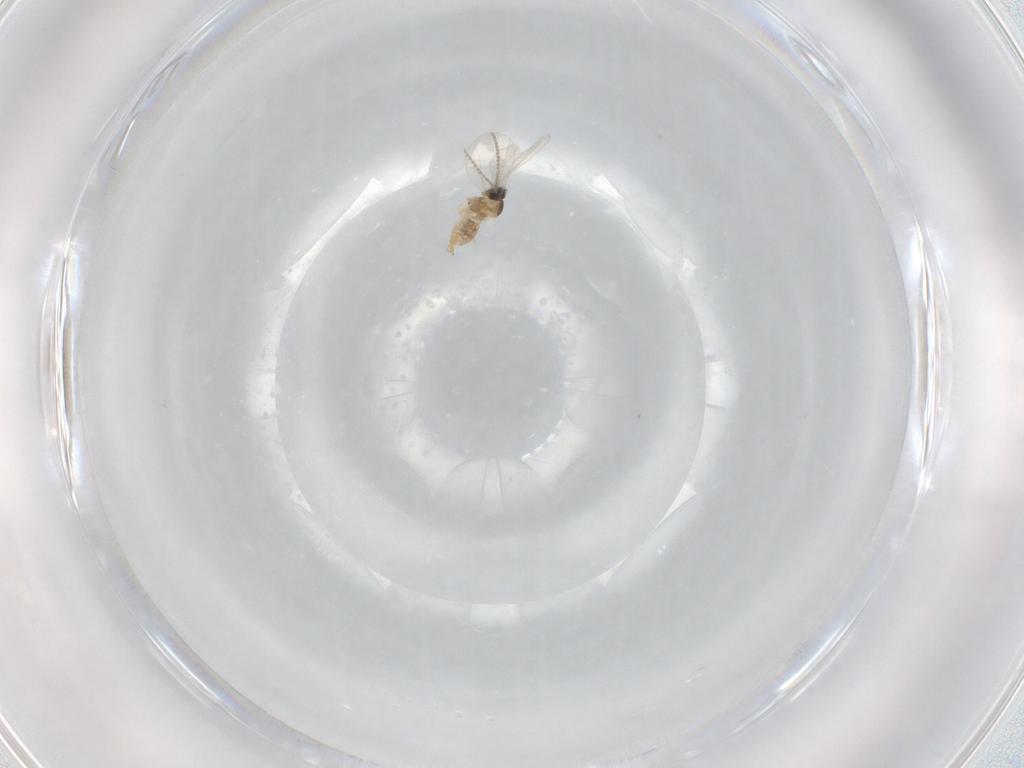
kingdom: Animalia
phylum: Arthropoda
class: Insecta
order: Diptera
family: Cecidomyiidae
